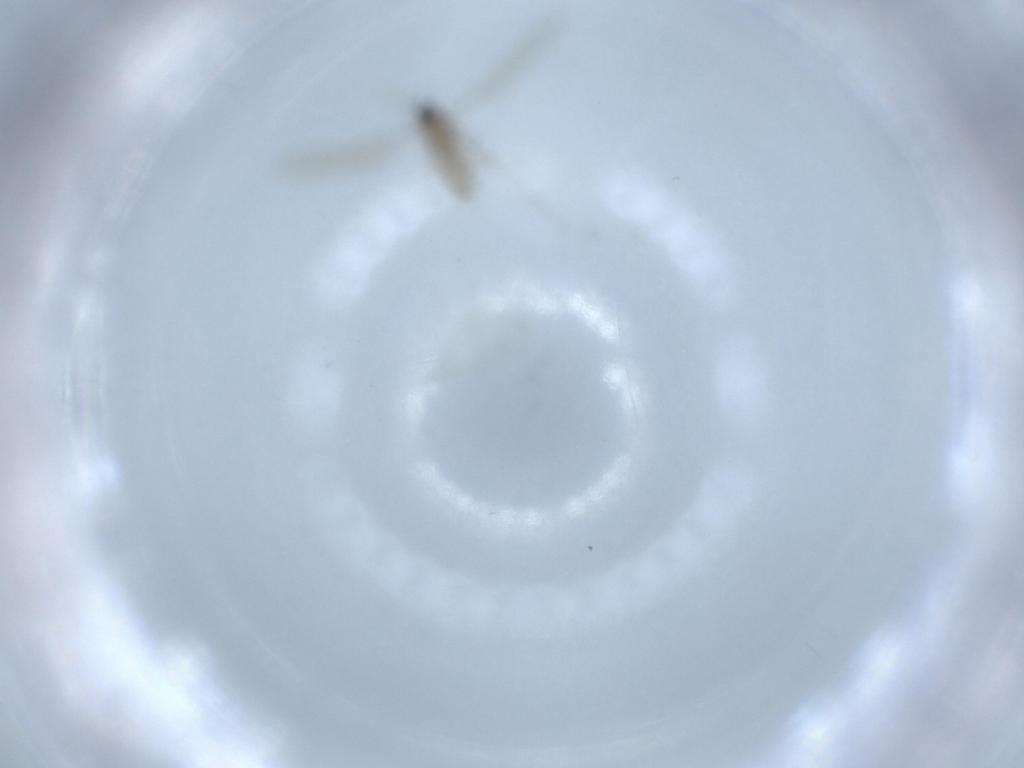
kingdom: Animalia
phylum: Arthropoda
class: Insecta
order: Diptera
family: Cecidomyiidae
